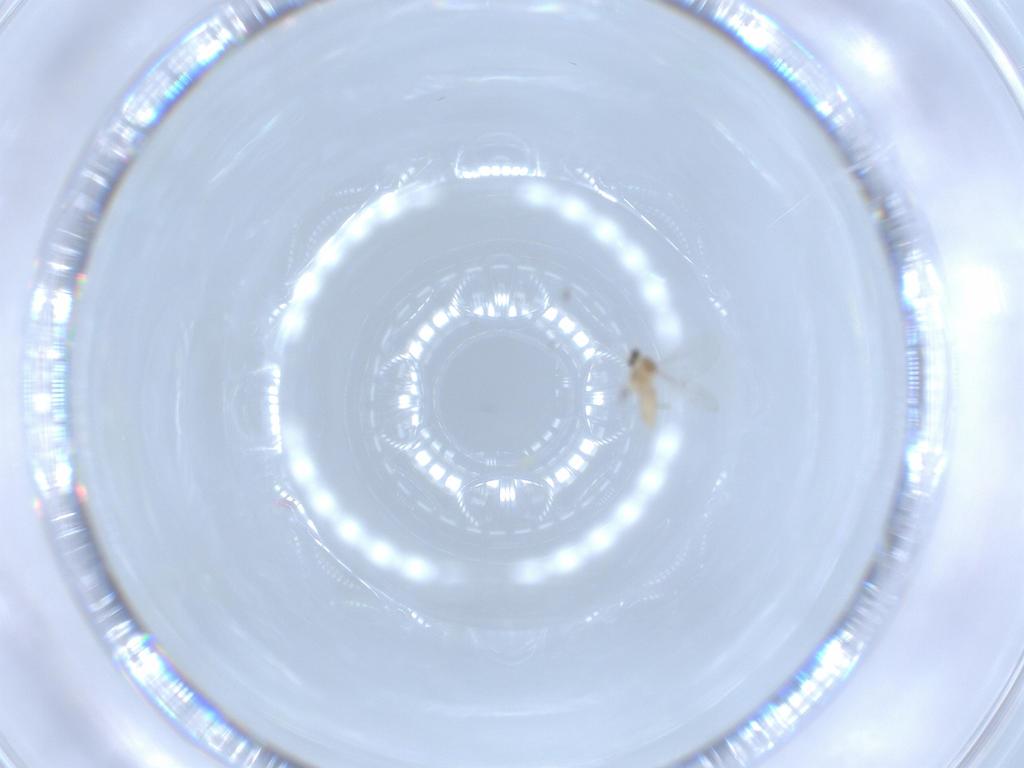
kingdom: Animalia
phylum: Arthropoda
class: Insecta
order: Diptera
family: Cecidomyiidae
